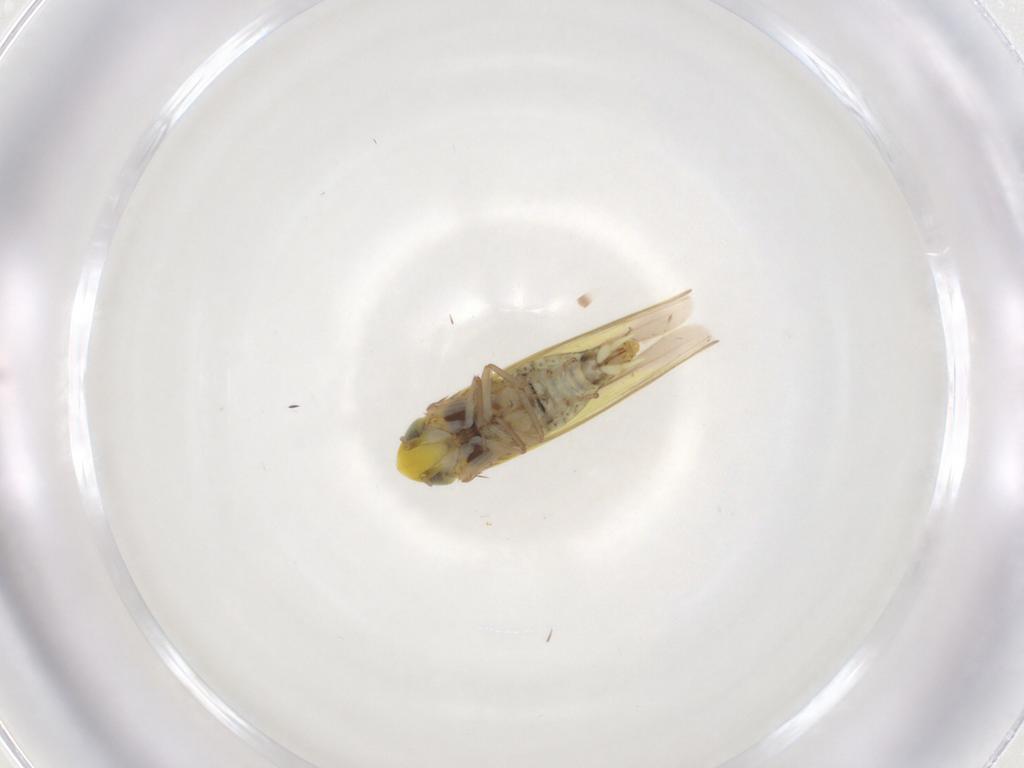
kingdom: Animalia
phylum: Arthropoda
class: Insecta
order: Hemiptera
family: Cicadellidae
